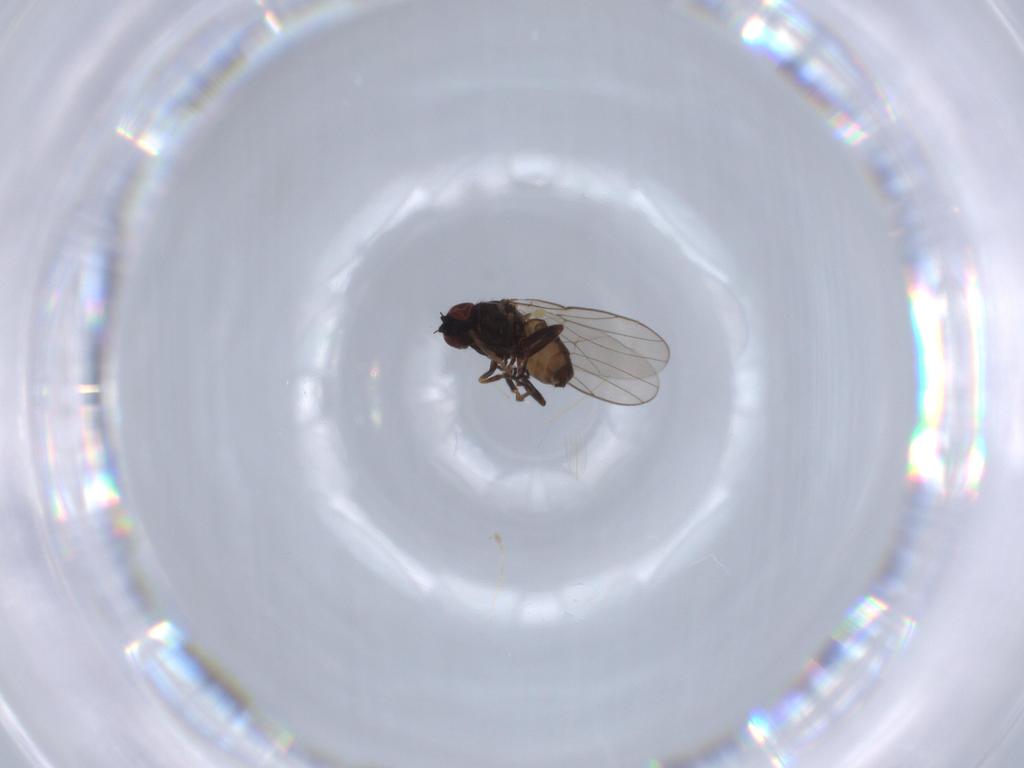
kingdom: Animalia
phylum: Arthropoda
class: Insecta
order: Diptera
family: Chloropidae
